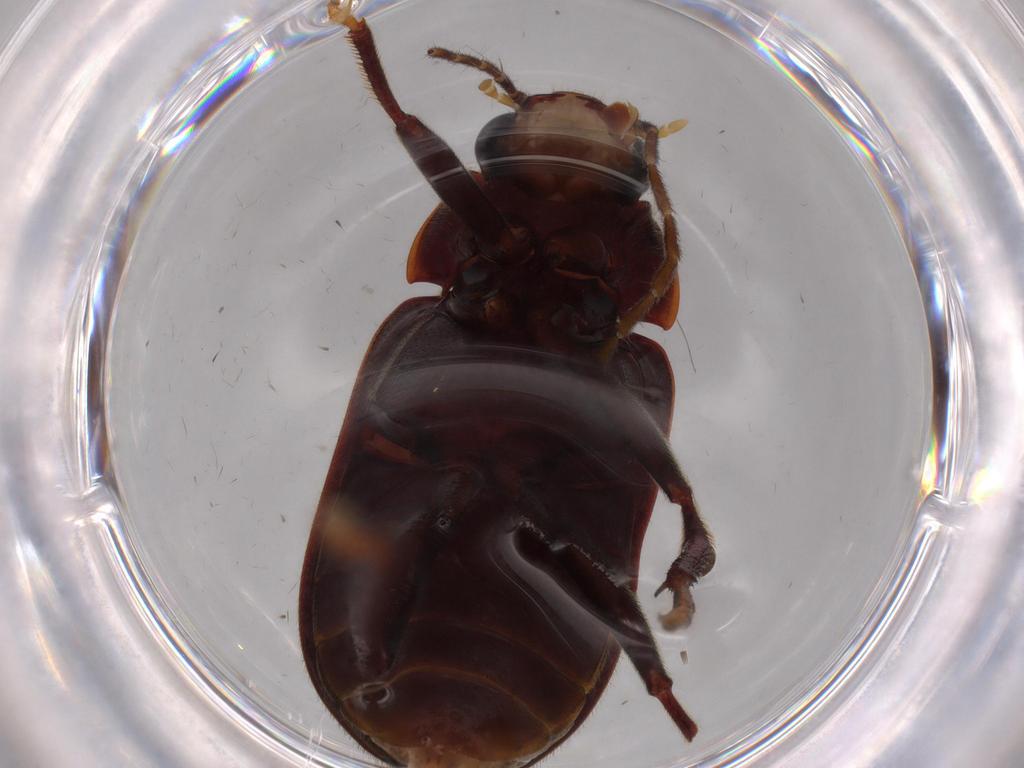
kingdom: Animalia
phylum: Arthropoda
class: Insecta
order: Coleoptera
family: Ptilodactylidae
